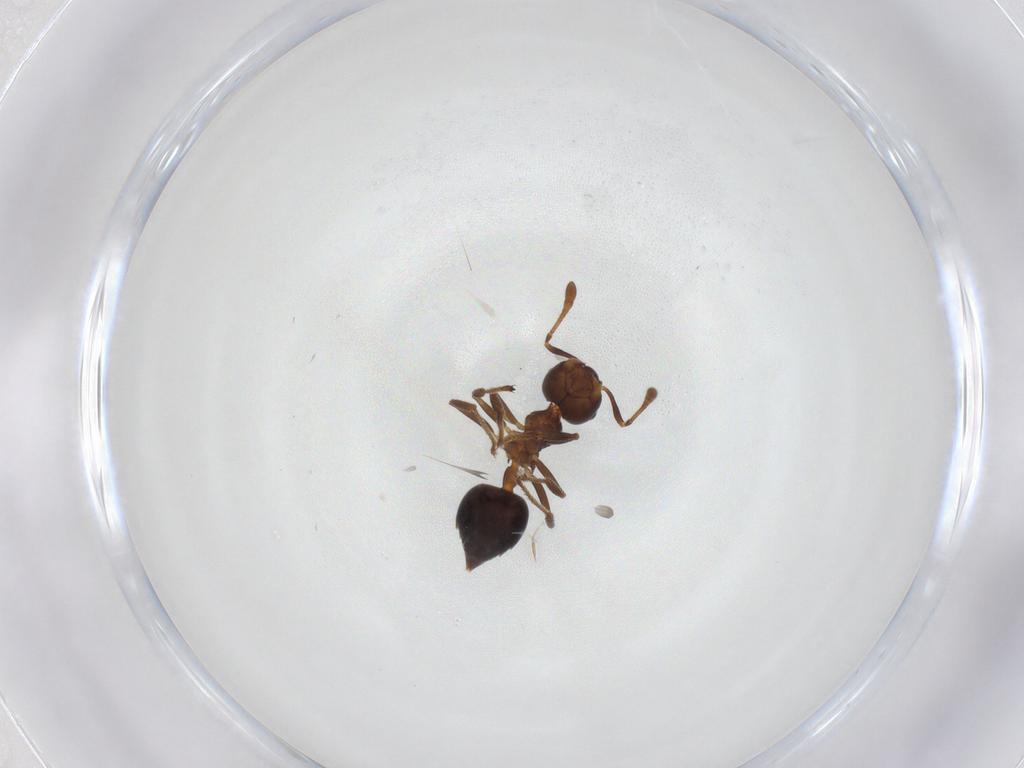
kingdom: Animalia
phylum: Arthropoda
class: Insecta
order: Hymenoptera
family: Formicidae
